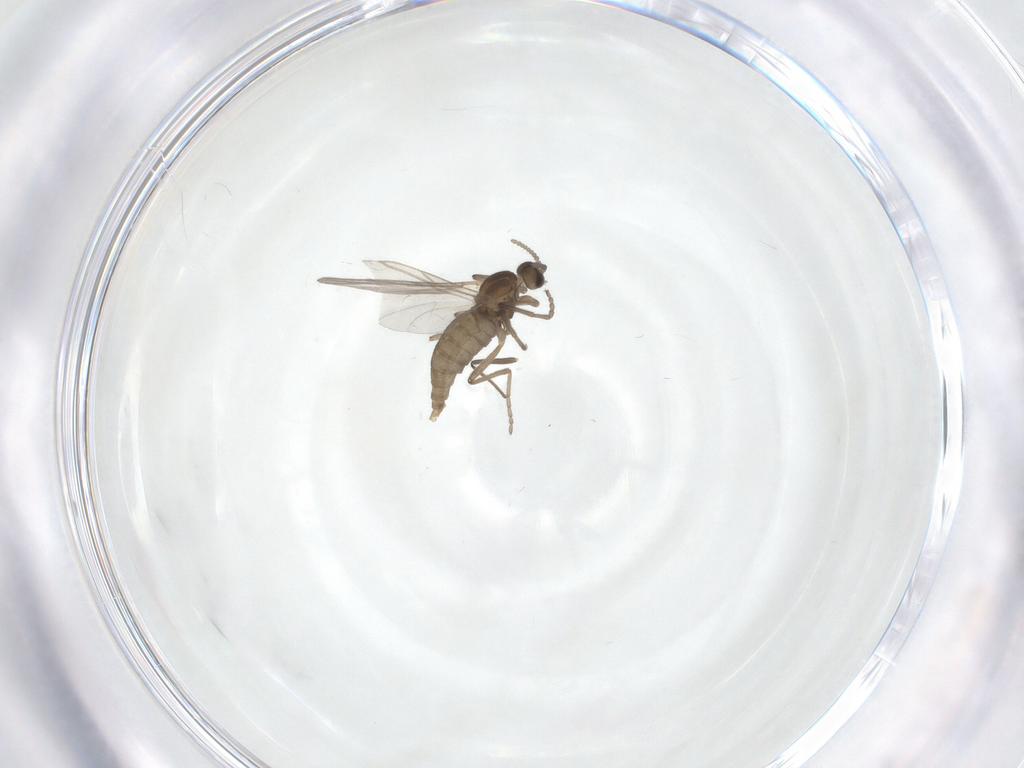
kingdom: Animalia
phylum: Arthropoda
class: Insecta
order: Diptera
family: Cecidomyiidae
